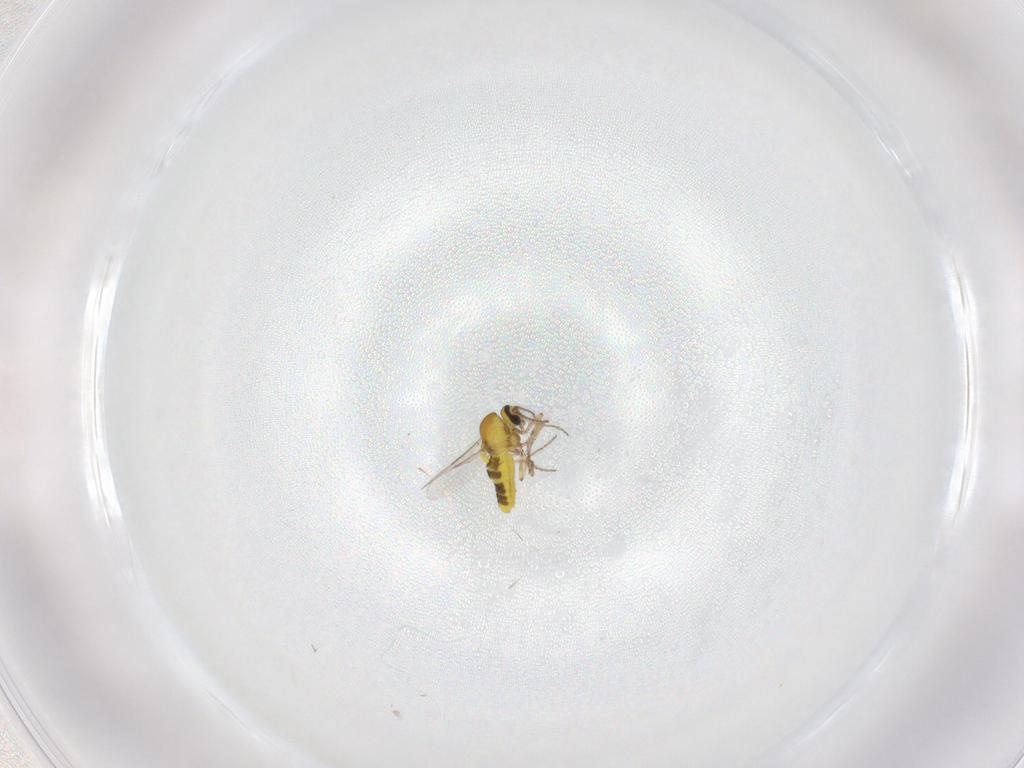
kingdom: Animalia
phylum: Arthropoda
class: Insecta
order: Diptera
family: Ceratopogonidae
